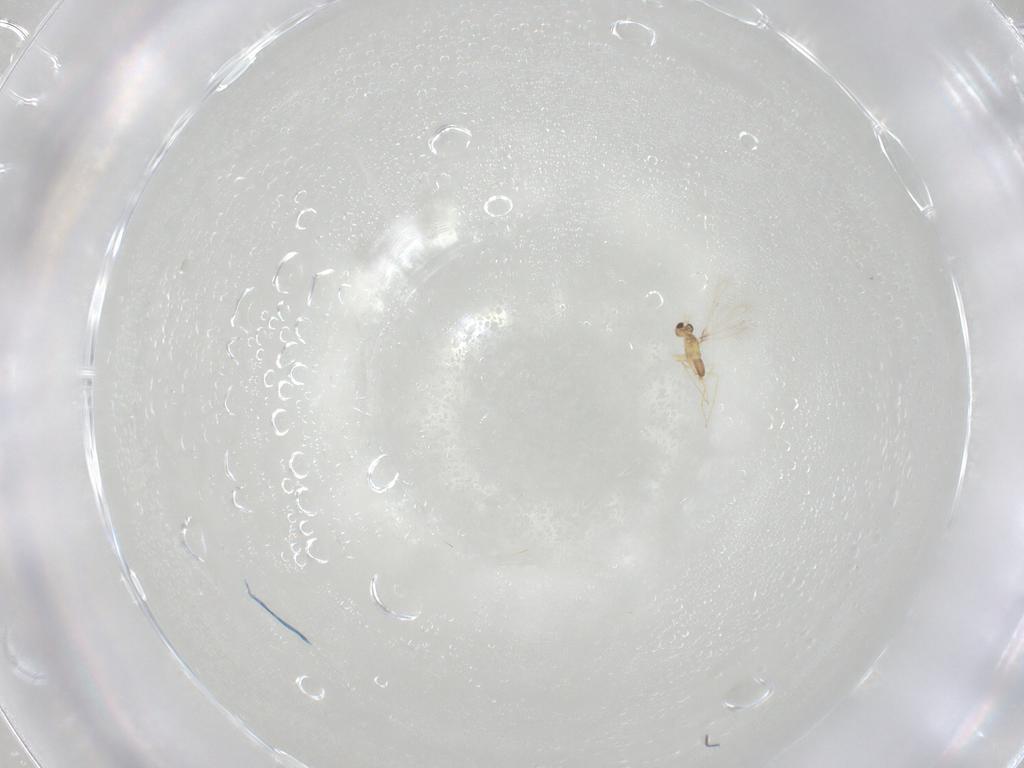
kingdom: Animalia
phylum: Arthropoda
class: Insecta
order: Hymenoptera
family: Mymaridae
